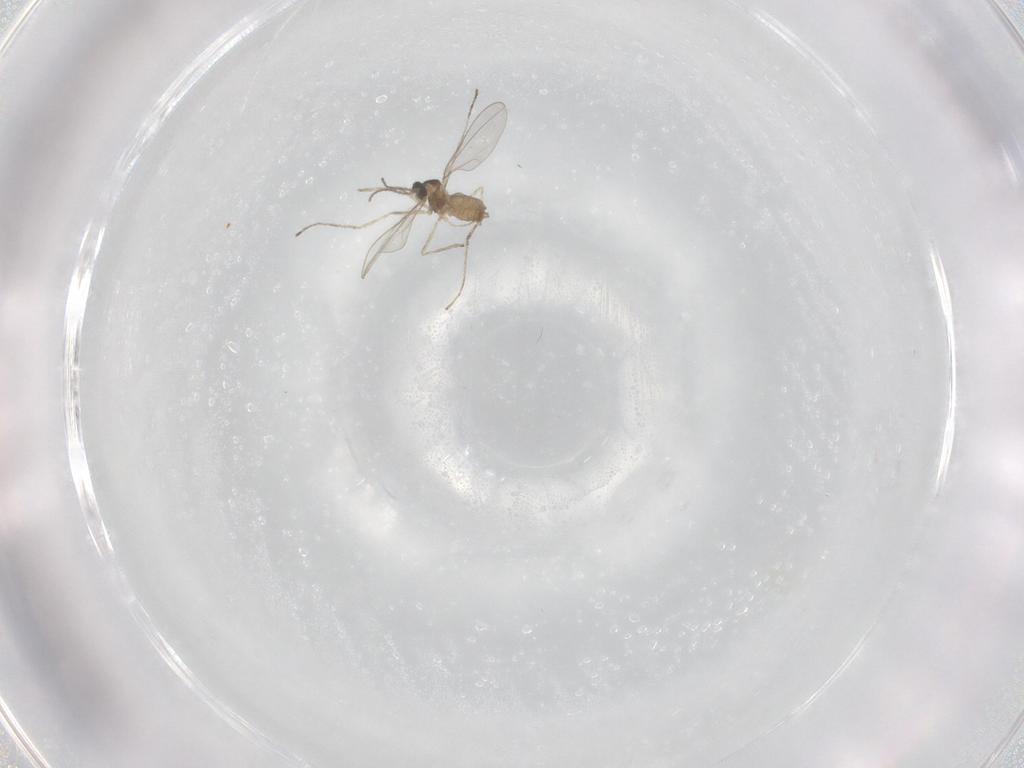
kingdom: Animalia
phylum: Arthropoda
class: Insecta
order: Diptera
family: Cecidomyiidae
